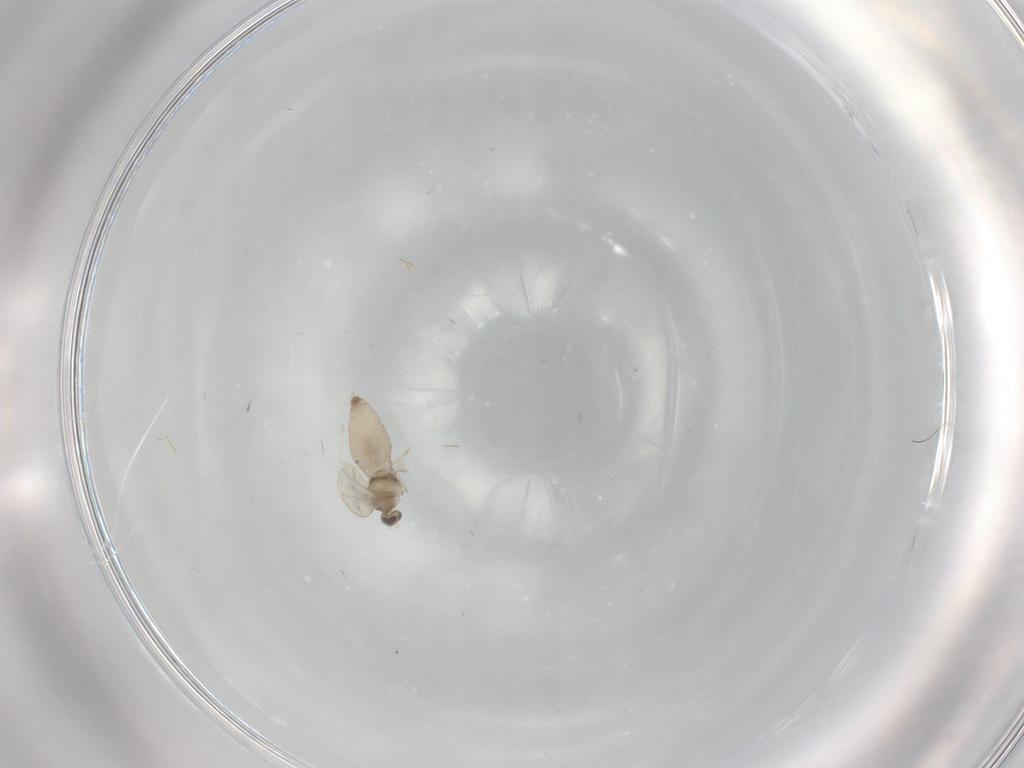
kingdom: Animalia
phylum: Arthropoda
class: Insecta
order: Diptera
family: Cecidomyiidae
